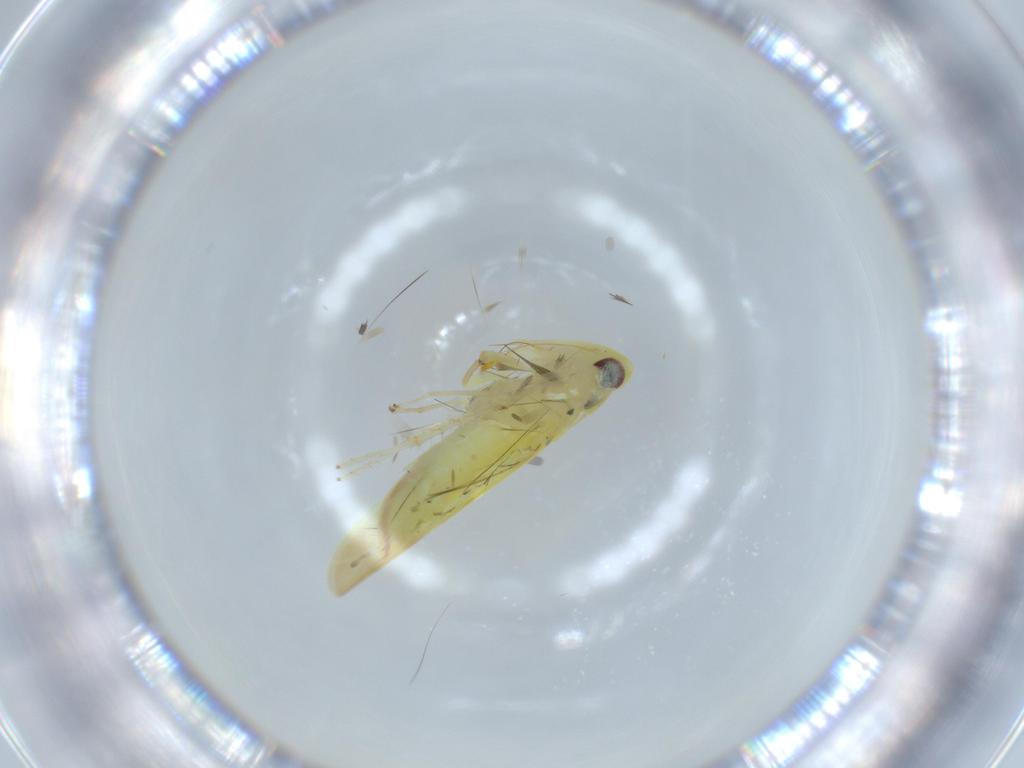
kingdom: Animalia
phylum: Arthropoda
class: Insecta
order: Hemiptera
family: Cicadellidae
